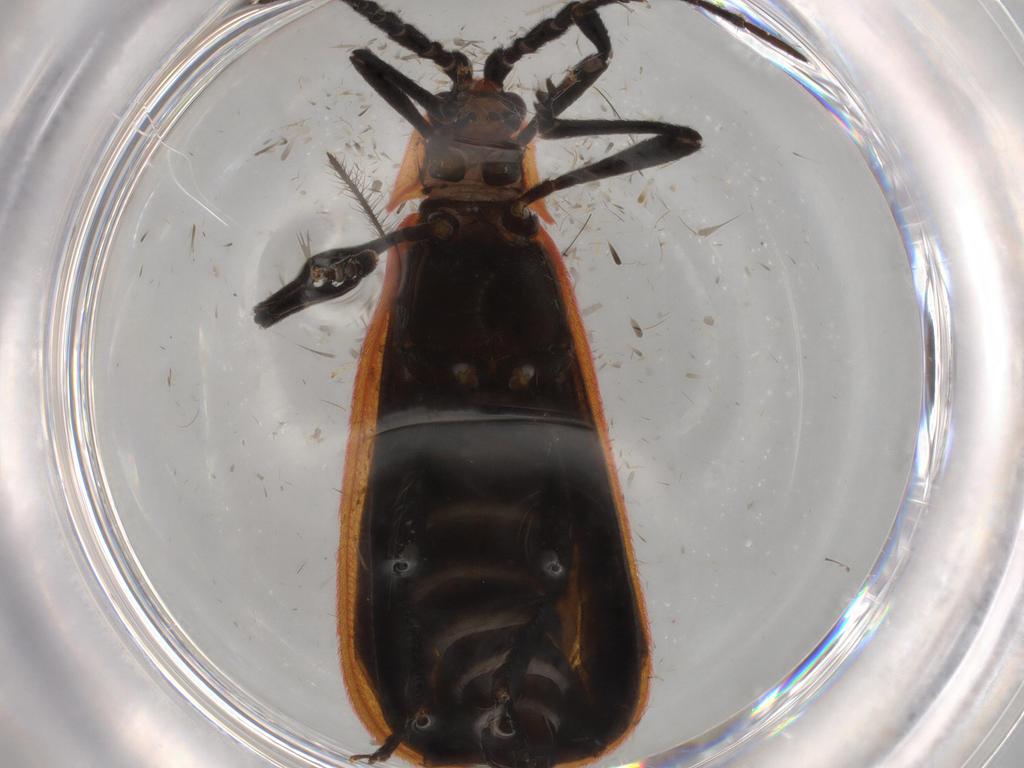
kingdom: Animalia
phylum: Arthropoda
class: Insecta
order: Coleoptera
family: Lycidae
